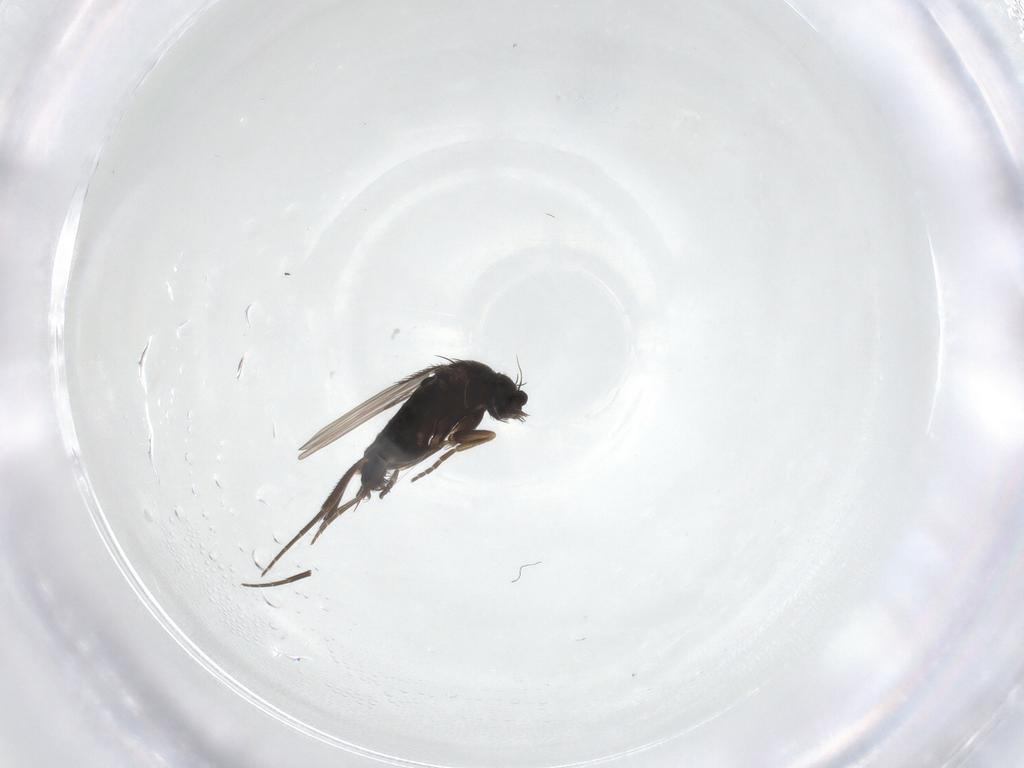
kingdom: Animalia
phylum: Arthropoda
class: Insecta
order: Diptera
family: Phoridae
